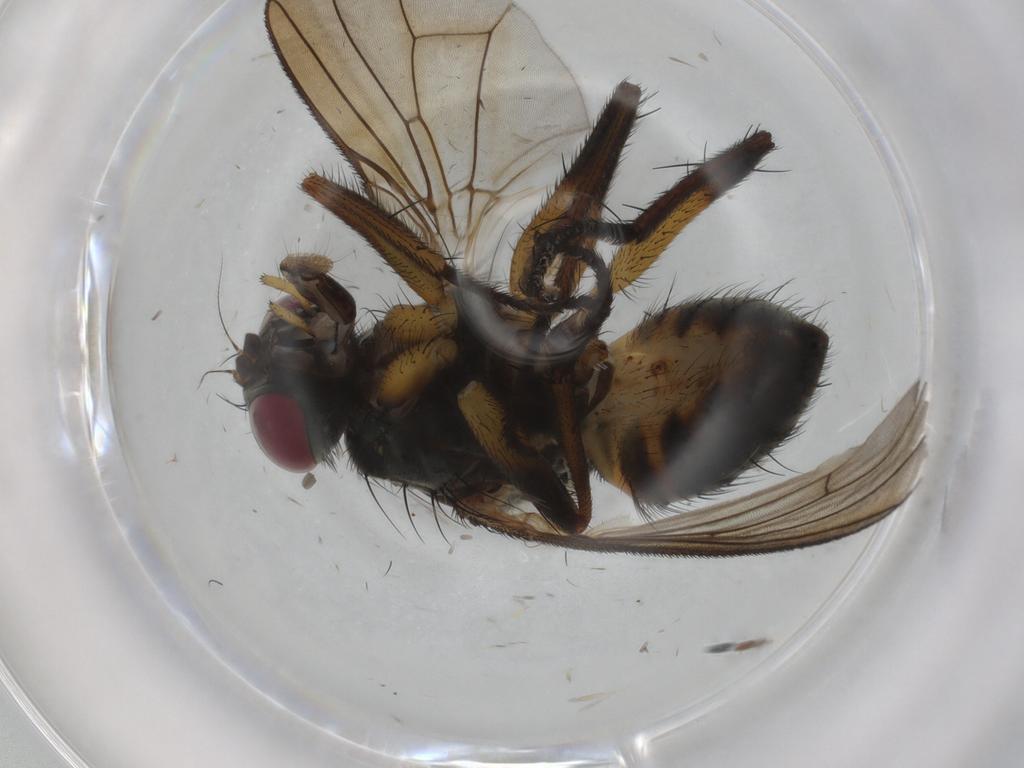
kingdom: Animalia
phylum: Arthropoda
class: Insecta
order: Diptera
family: Muscidae
